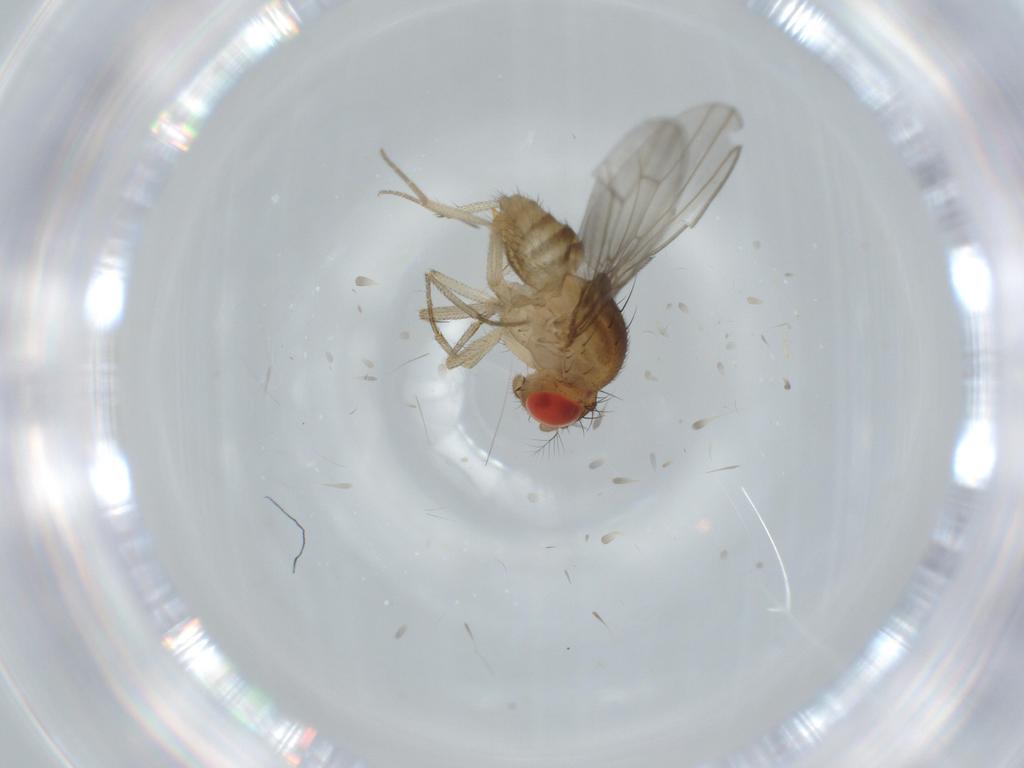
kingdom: Animalia
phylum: Arthropoda
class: Insecta
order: Diptera
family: Drosophilidae
